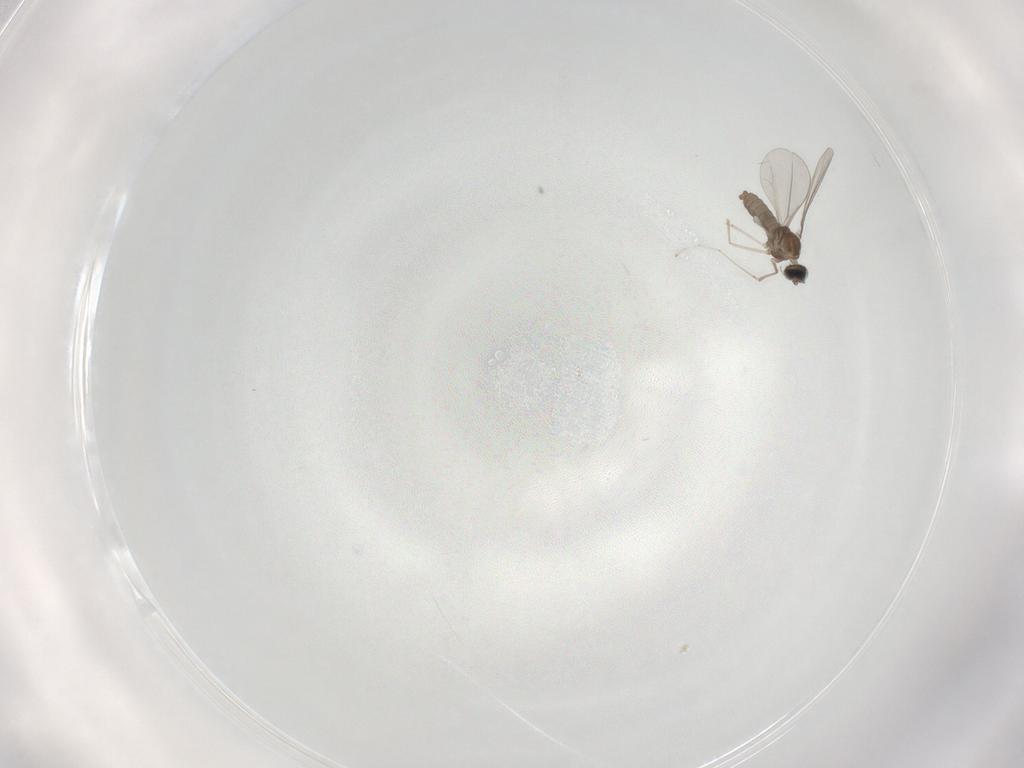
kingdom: Animalia
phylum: Arthropoda
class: Insecta
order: Diptera
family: Cecidomyiidae
